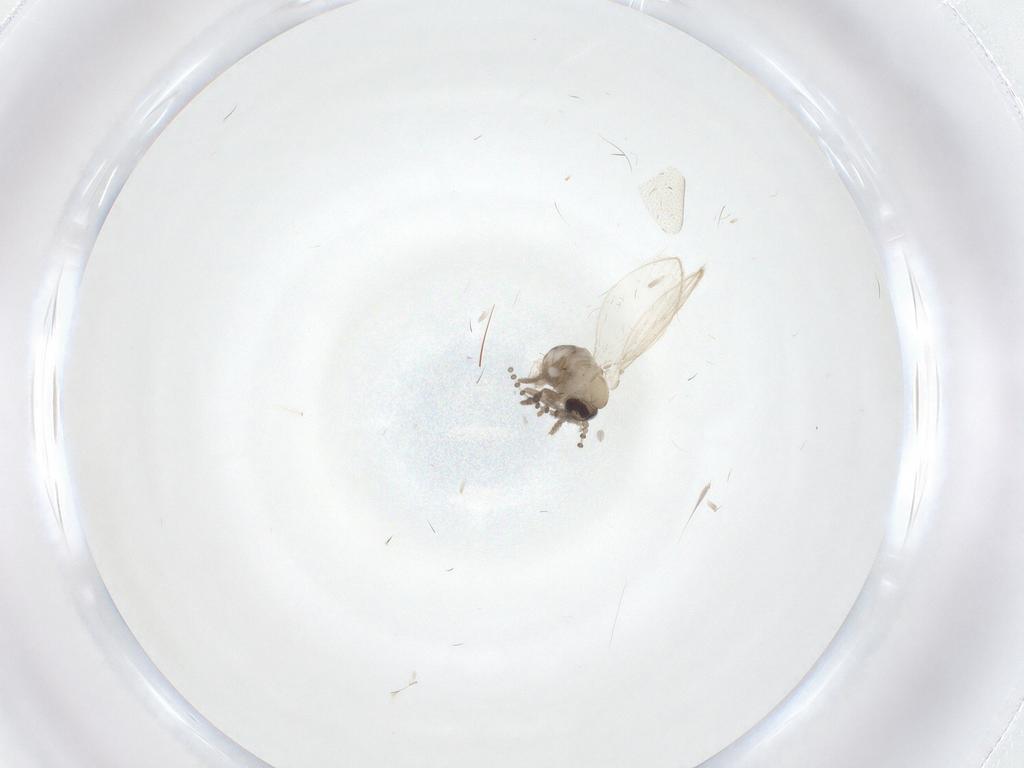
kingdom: Animalia
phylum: Arthropoda
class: Insecta
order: Diptera
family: Psychodidae
